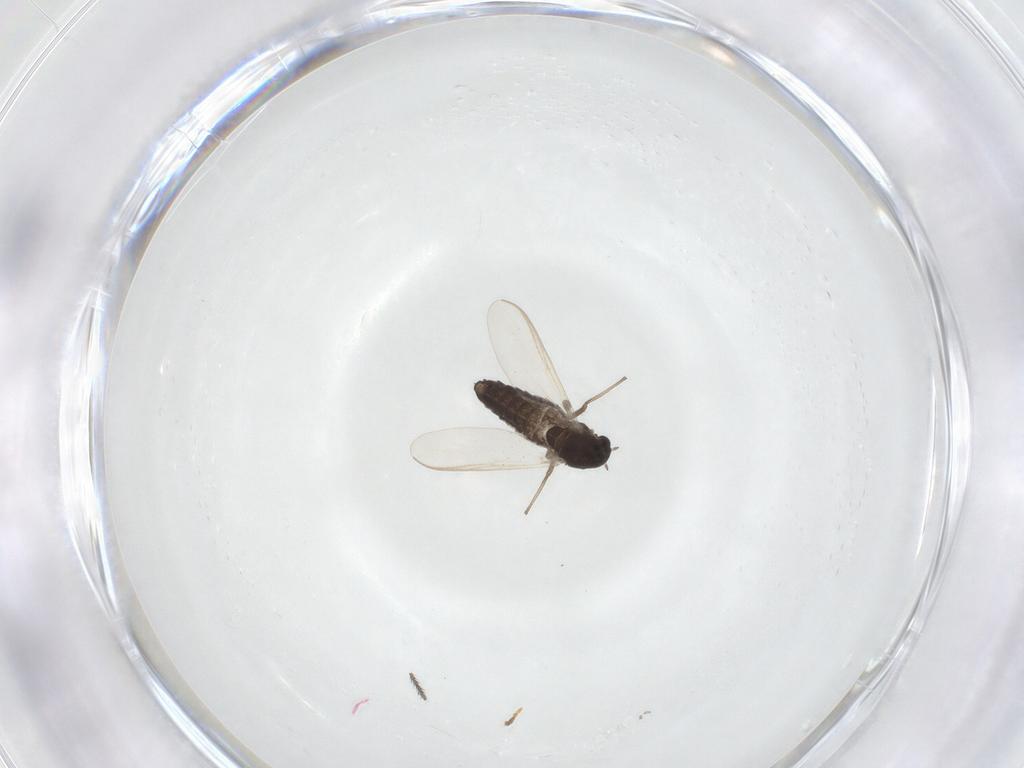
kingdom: Animalia
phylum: Arthropoda
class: Insecta
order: Diptera
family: Chironomidae
